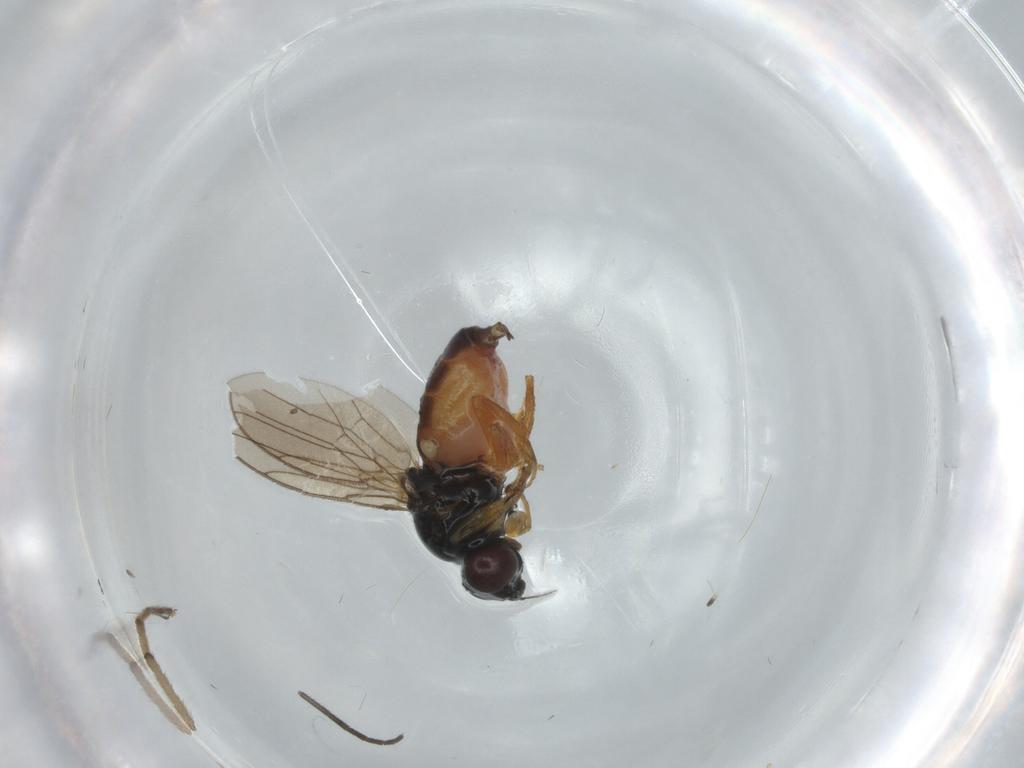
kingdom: Animalia
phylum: Arthropoda
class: Insecta
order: Diptera
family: Chloropidae
